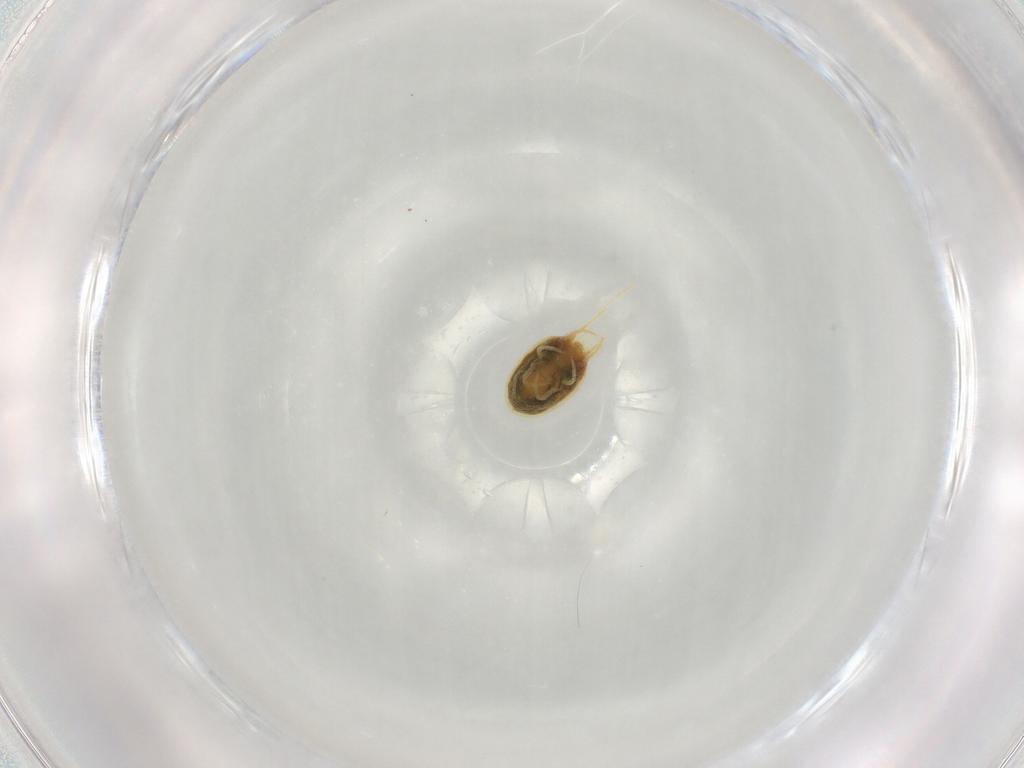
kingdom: Animalia
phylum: Arthropoda
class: Arachnida
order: Trombidiformes
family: Tetranychidae
